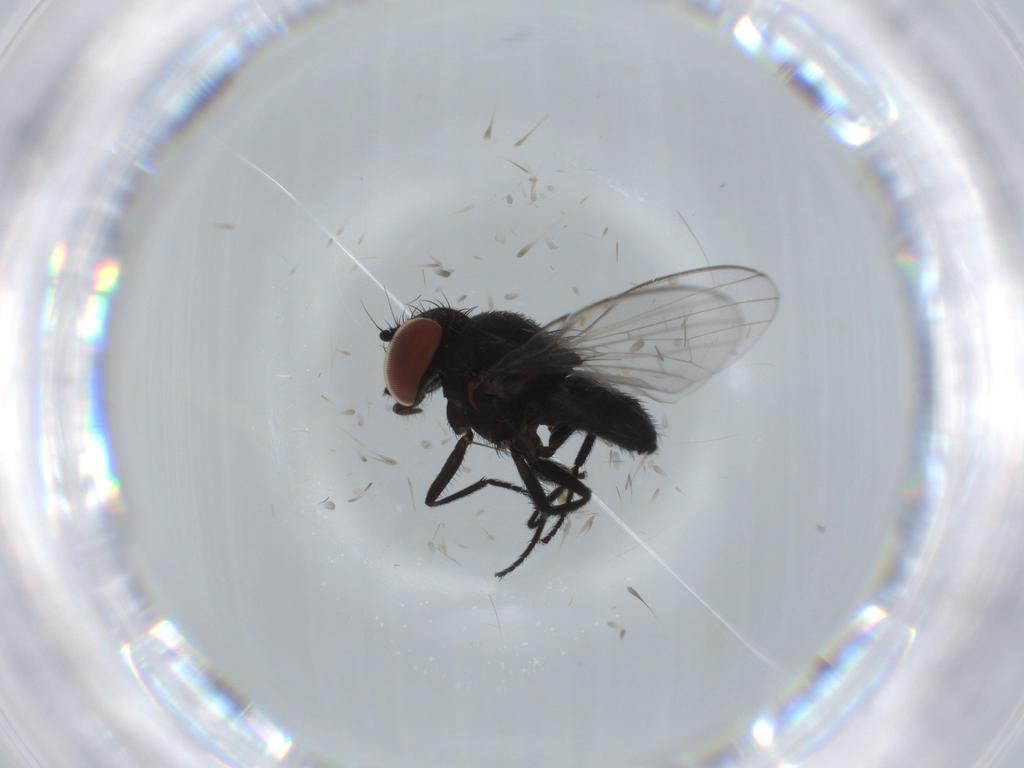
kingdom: Animalia
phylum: Arthropoda
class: Insecta
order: Diptera
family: Milichiidae
